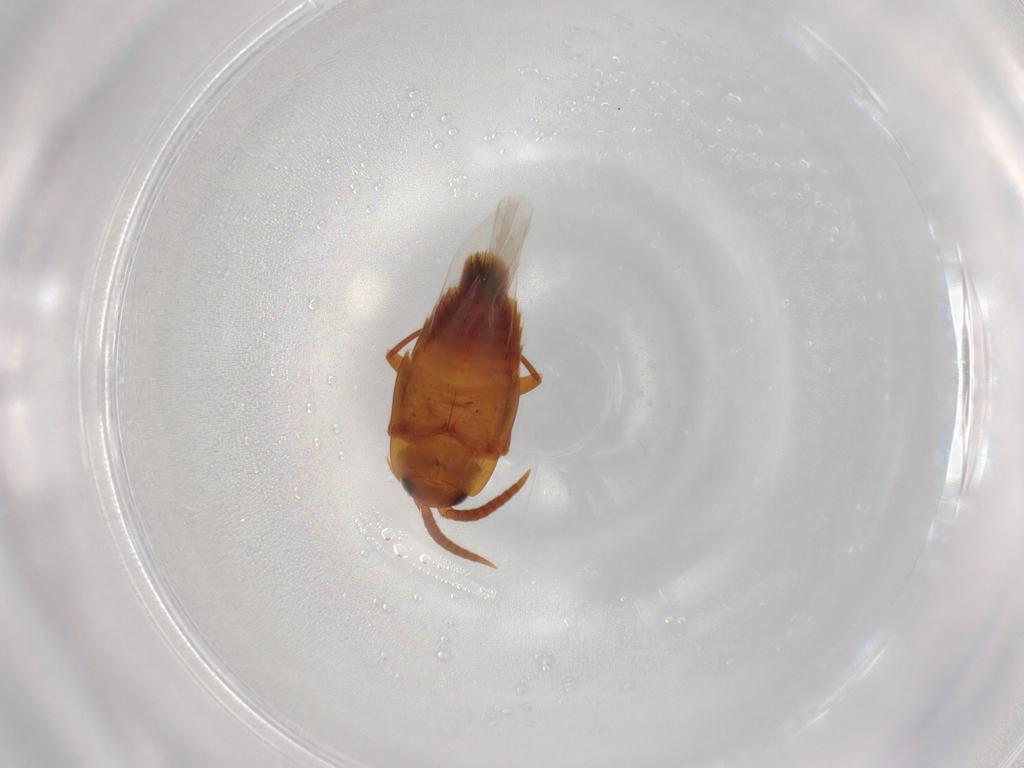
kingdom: Animalia
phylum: Arthropoda
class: Insecta
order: Coleoptera
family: Staphylinidae
